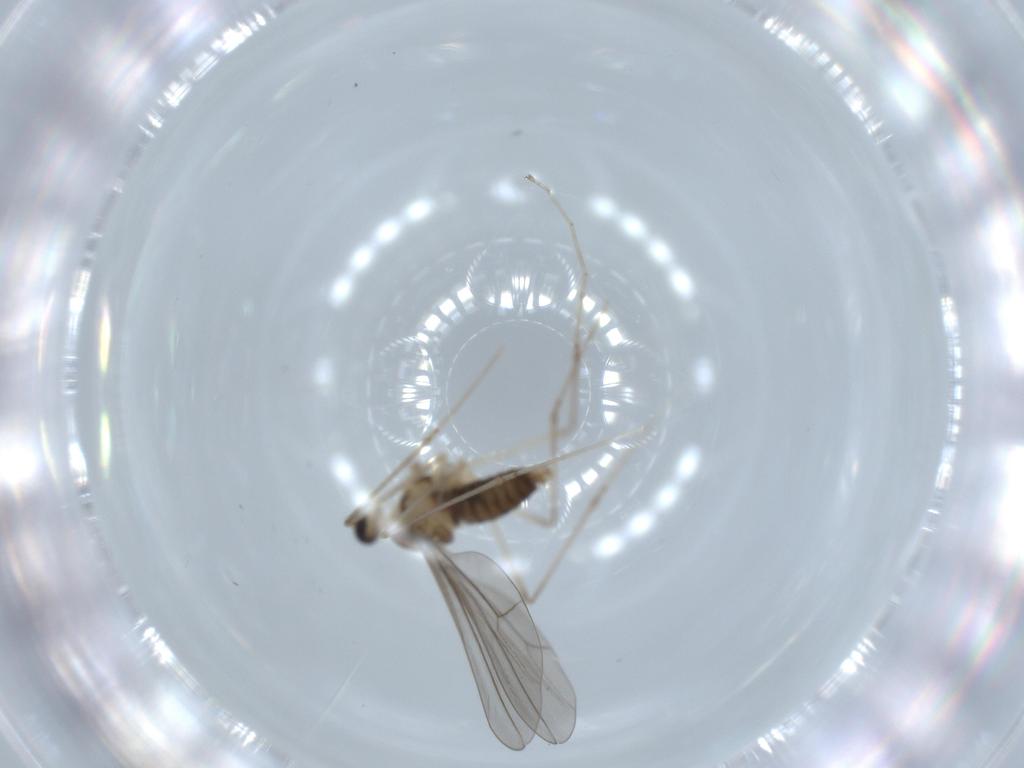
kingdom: Animalia
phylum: Arthropoda
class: Insecta
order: Diptera
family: Cecidomyiidae
